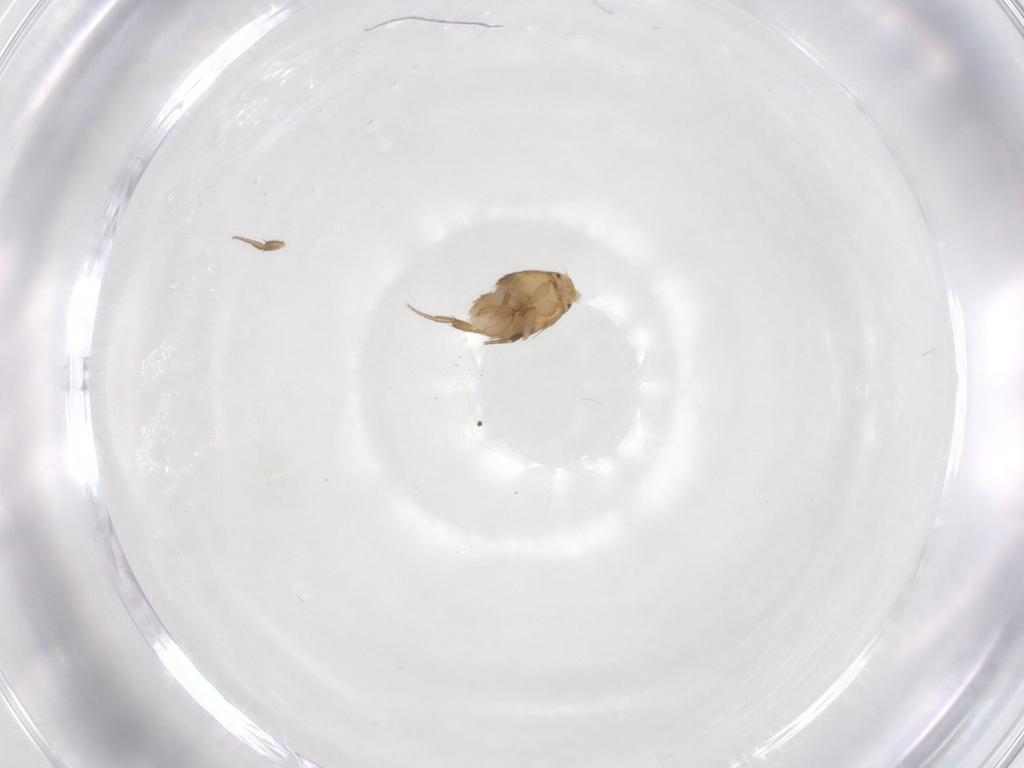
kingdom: Animalia
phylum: Arthropoda
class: Insecta
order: Diptera
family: Phoridae
